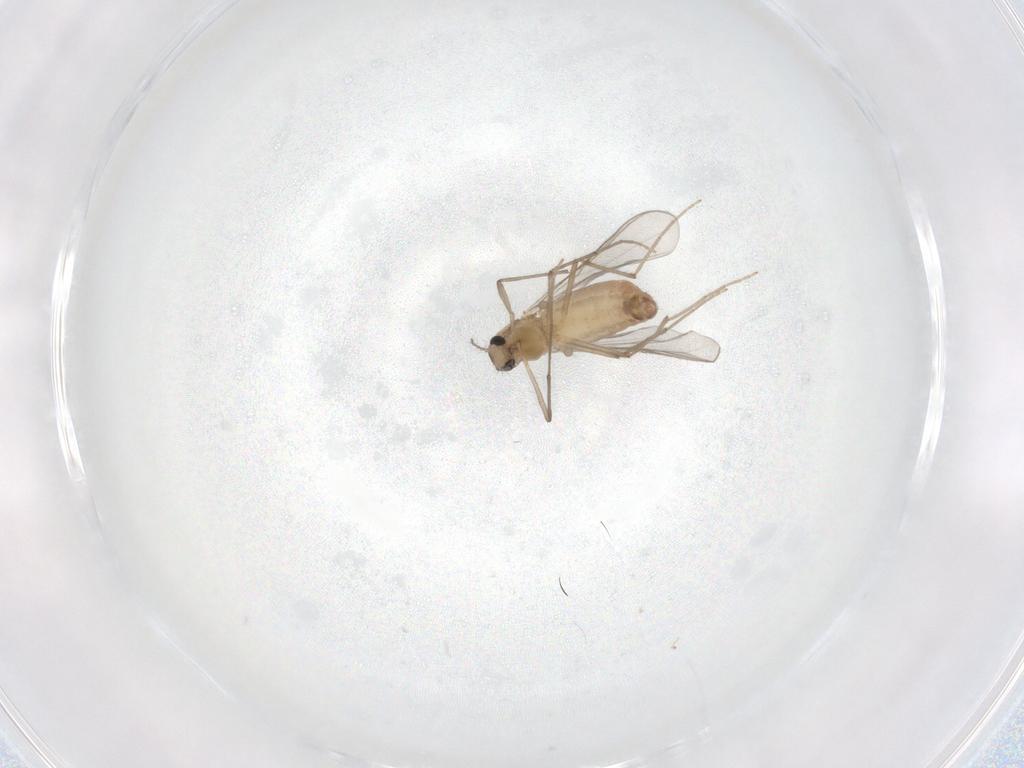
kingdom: Animalia
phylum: Arthropoda
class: Insecta
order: Diptera
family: Chironomidae
